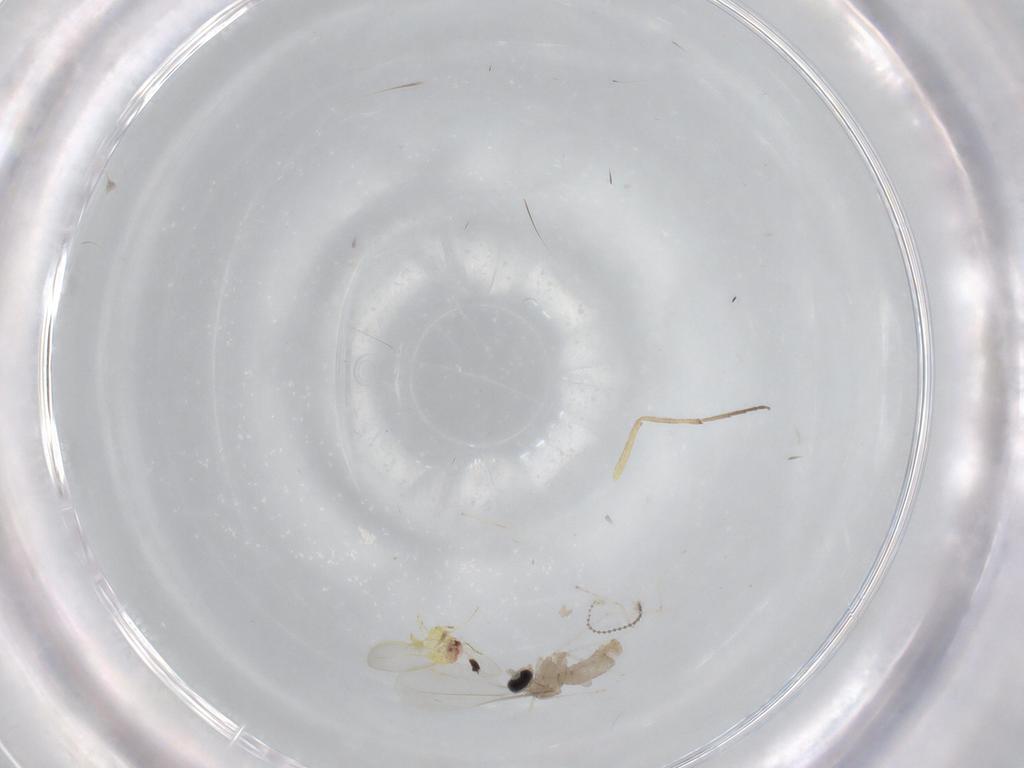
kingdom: Animalia
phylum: Arthropoda
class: Insecta
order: Diptera
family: Cecidomyiidae
